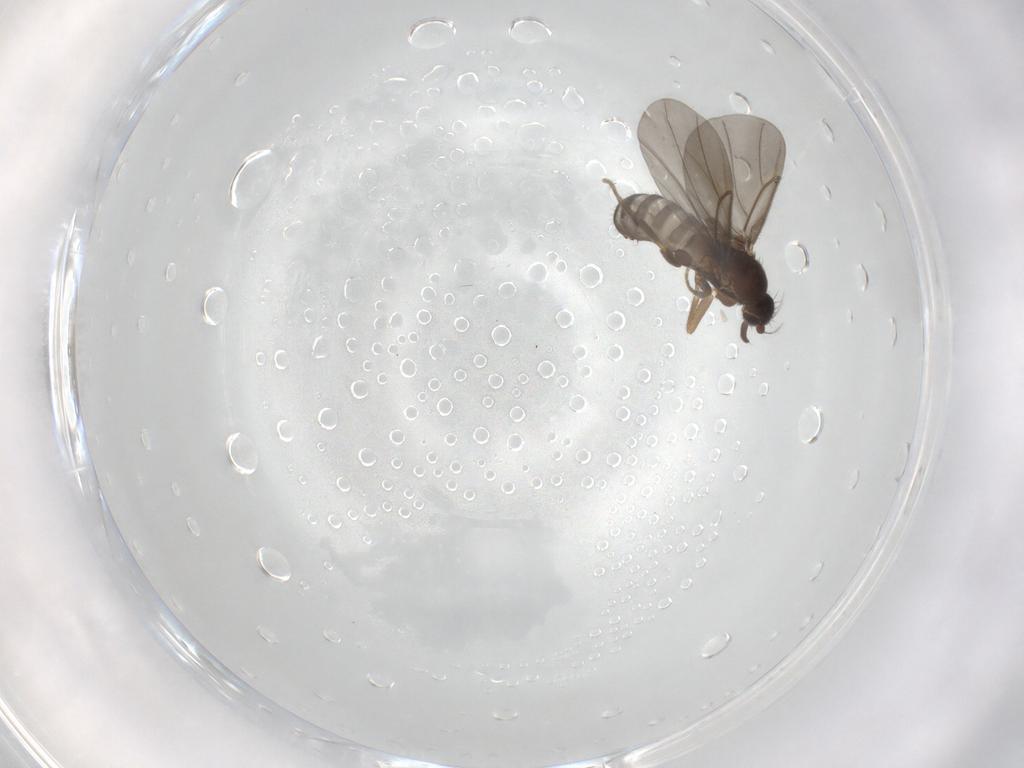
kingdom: Animalia
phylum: Arthropoda
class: Insecta
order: Diptera
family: Phoridae
